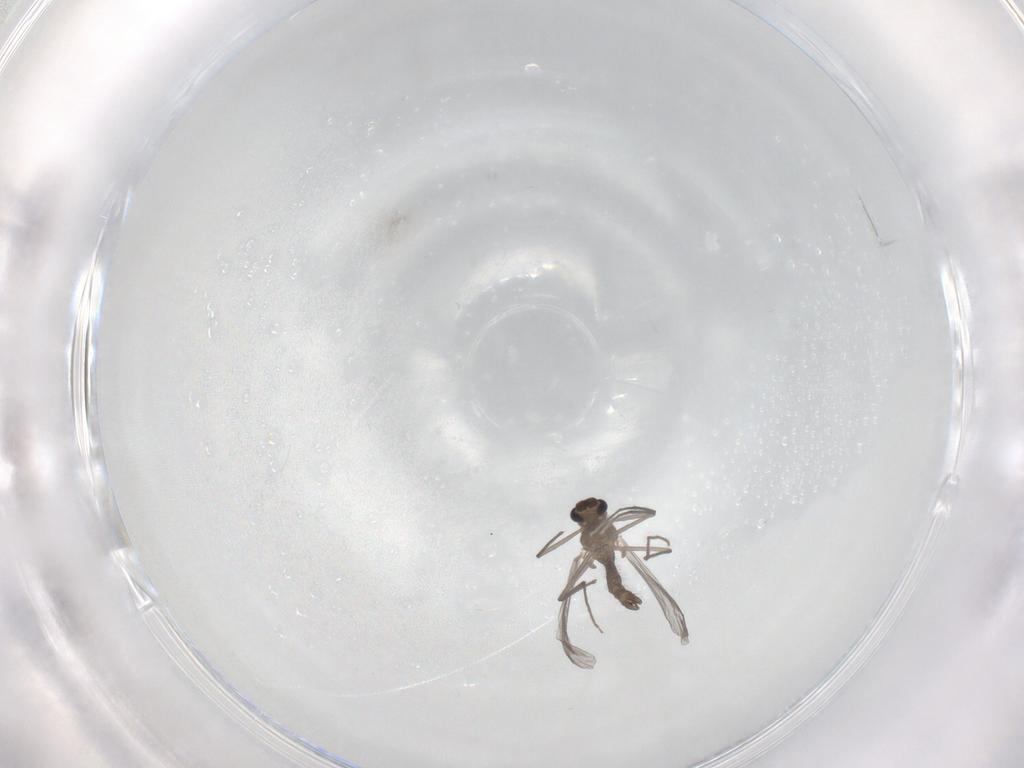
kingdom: Animalia
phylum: Arthropoda
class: Insecta
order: Diptera
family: Chironomidae
